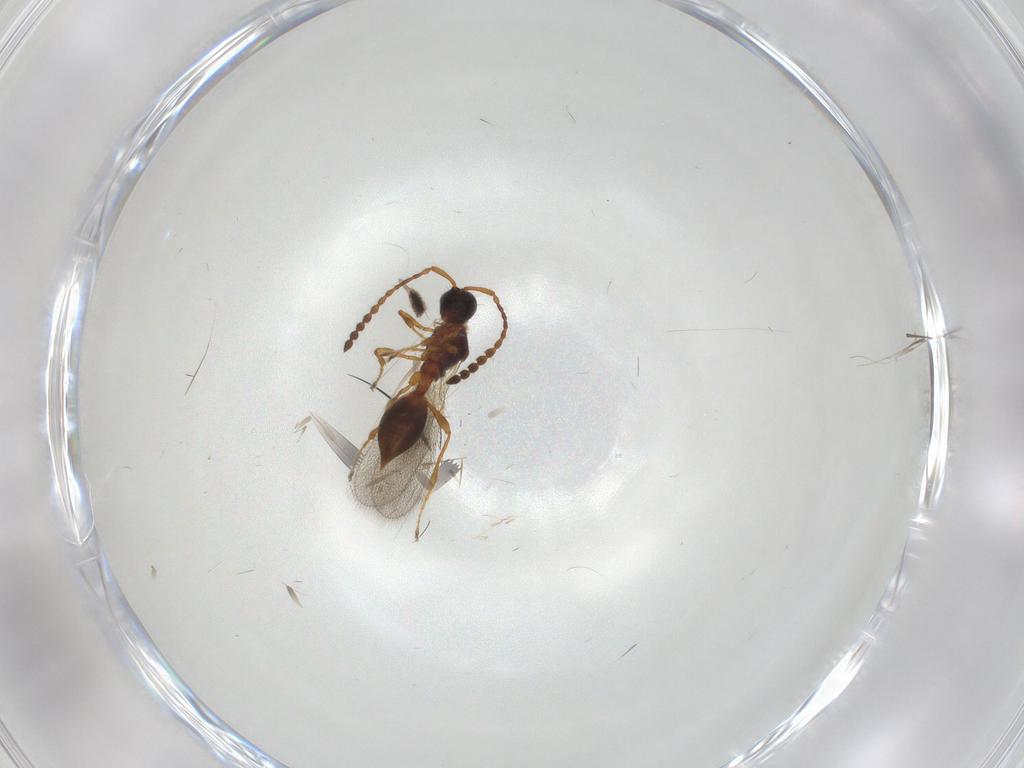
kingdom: Animalia
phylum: Arthropoda
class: Insecta
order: Hymenoptera
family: Diapriidae
